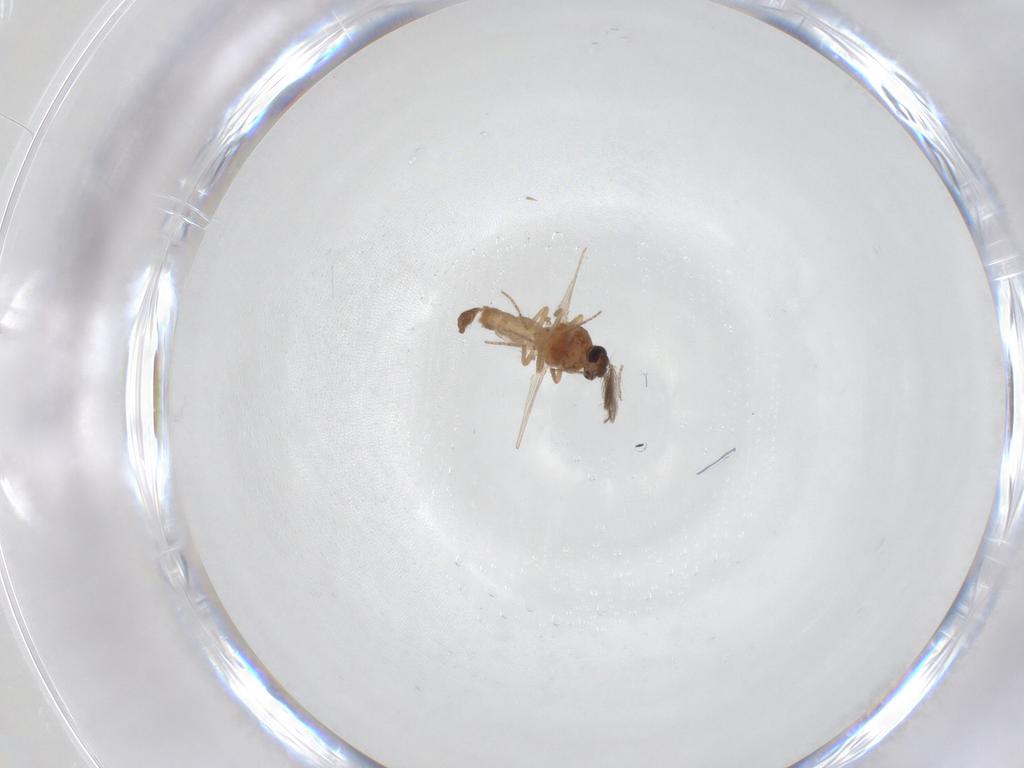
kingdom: Animalia
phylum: Arthropoda
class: Insecta
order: Diptera
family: Ceratopogonidae
